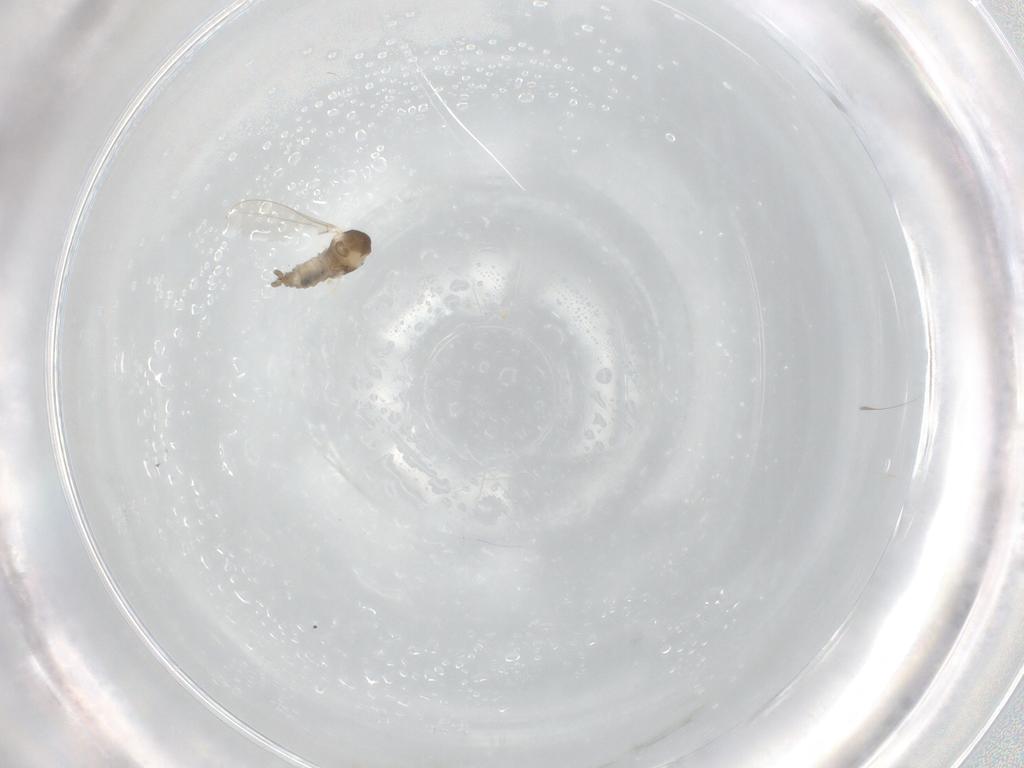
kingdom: Animalia
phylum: Arthropoda
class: Insecta
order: Diptera
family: Cecidomyiidae
